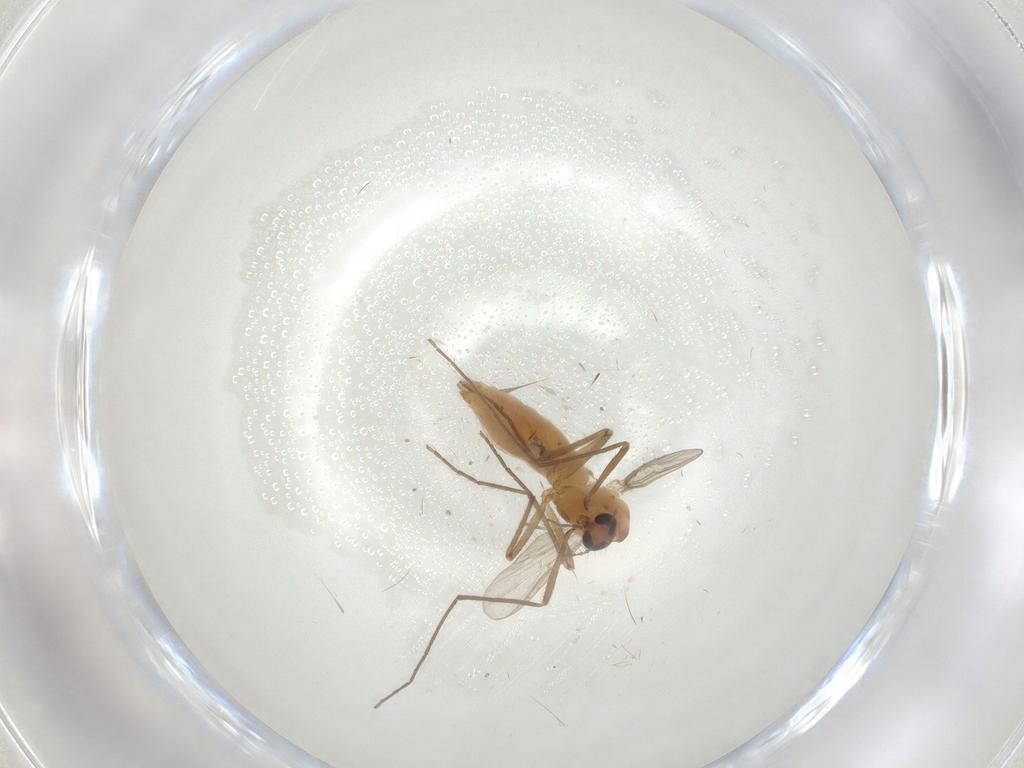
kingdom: Animalia
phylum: Arthropoda
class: Insecta
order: Diptera
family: Chironomidae
